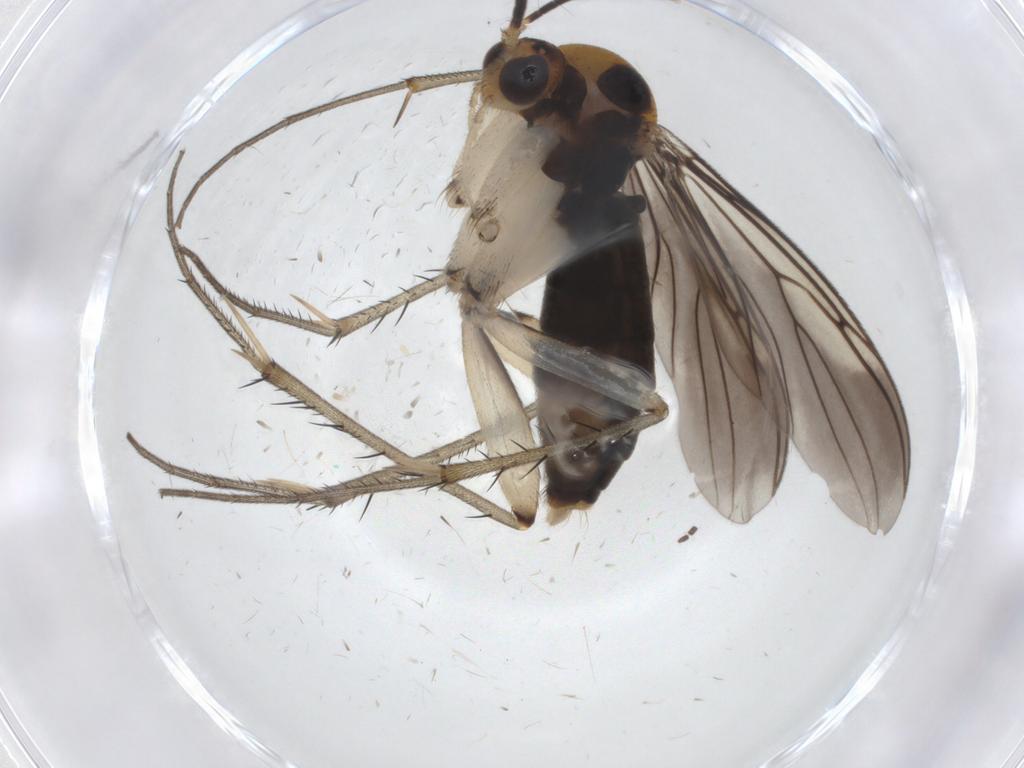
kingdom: Animalia
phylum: Arthropoda
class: Insecta
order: Diptera
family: Mycetophilidae
